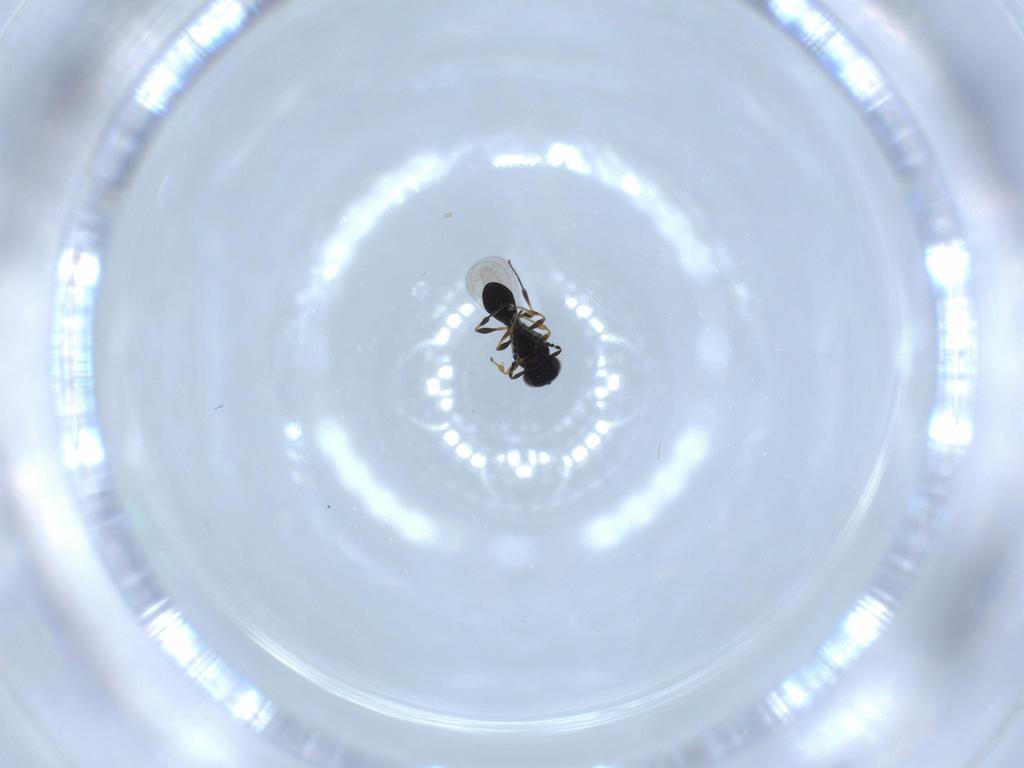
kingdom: Animalia
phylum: Arthropoda
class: Insecta
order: Hymenoptera
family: Platygastridae
